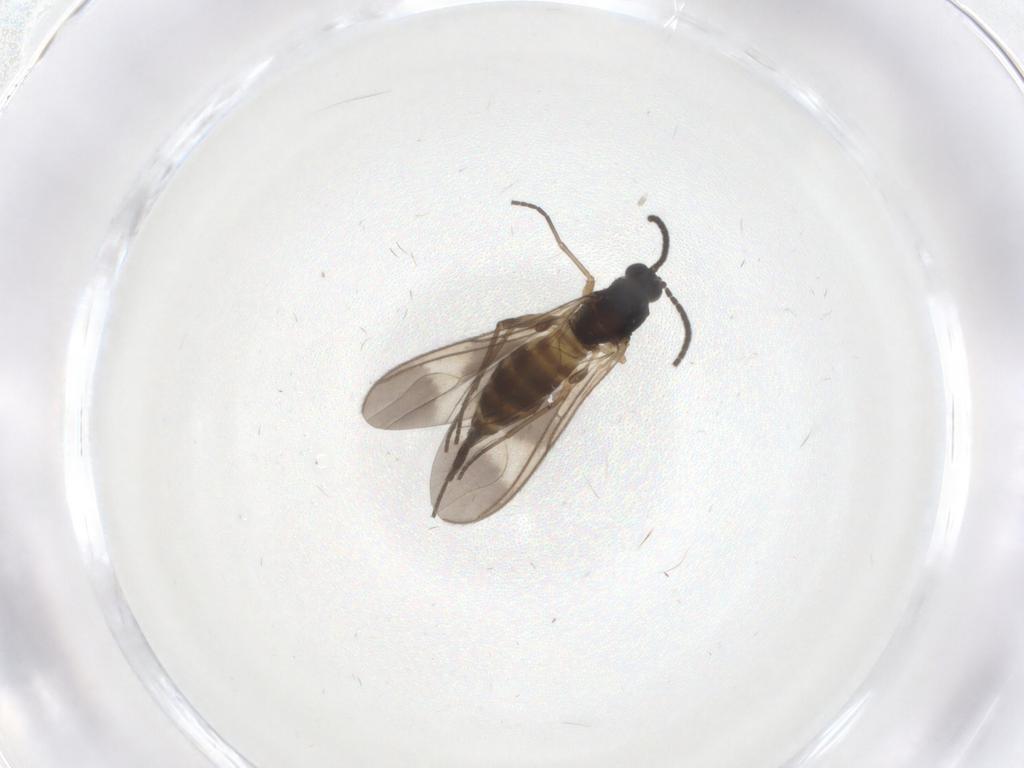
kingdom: Animalia
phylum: Arthropoda
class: Insecta
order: Diptera
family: Sciaridae
